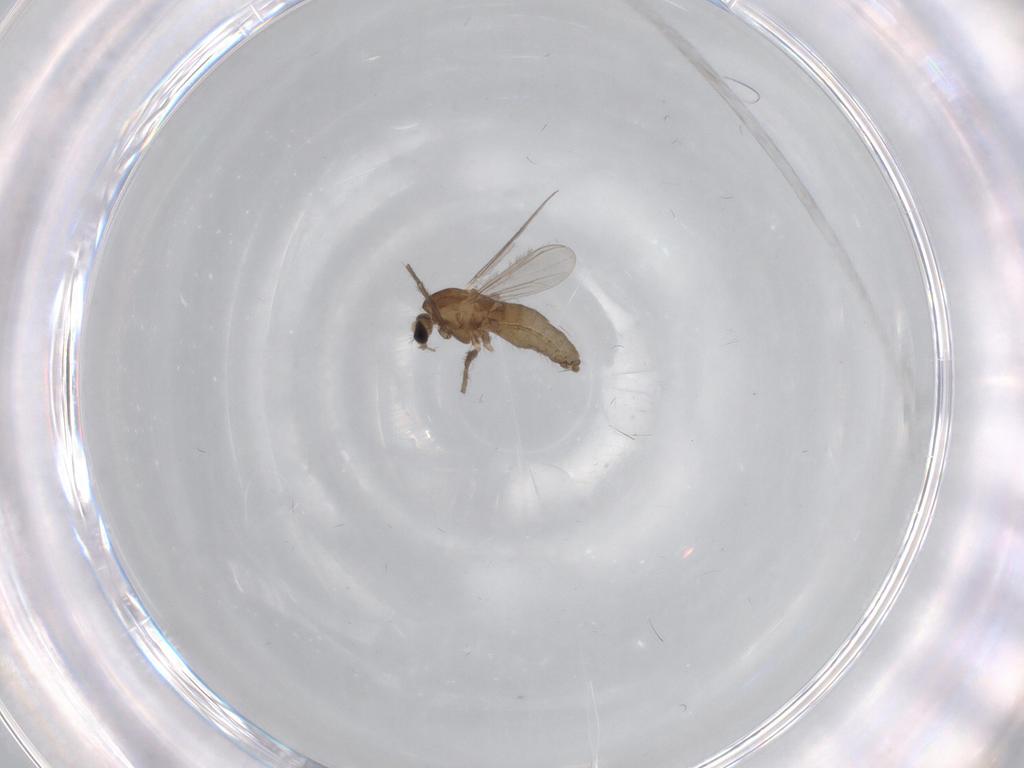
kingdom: Animalia
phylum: Arthropoda
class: Insecta
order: Diptera
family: Chironomidae
